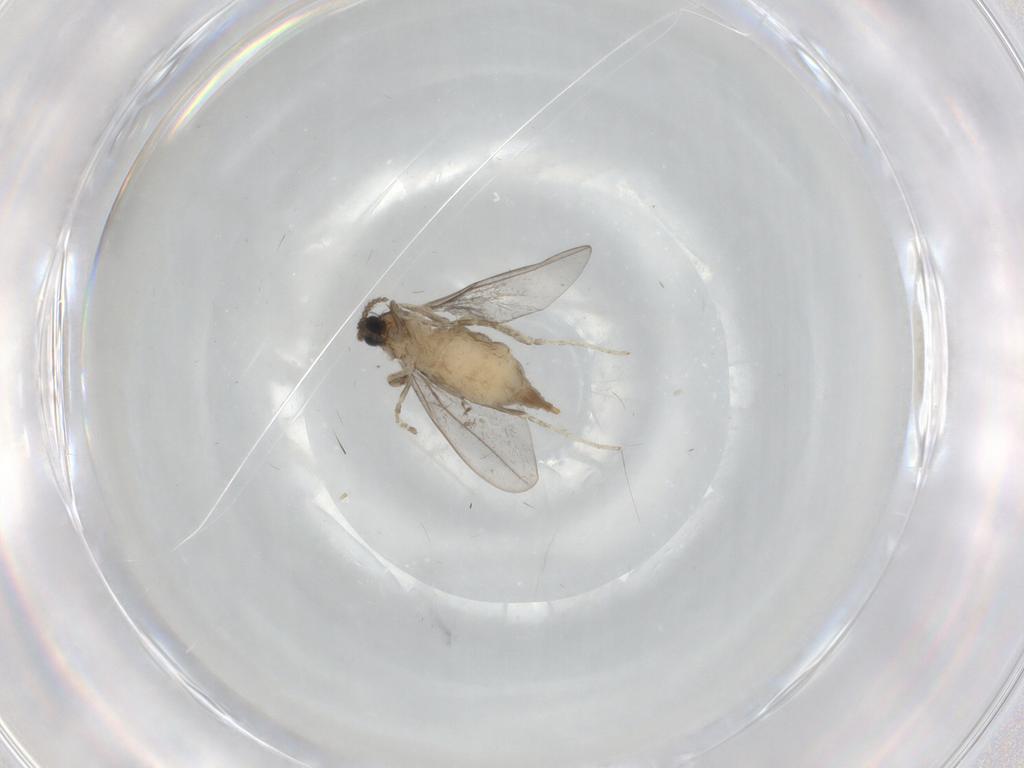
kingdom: Animalia
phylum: Arthropoda
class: Insecta
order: Diptera
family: Cecidomyiidae
